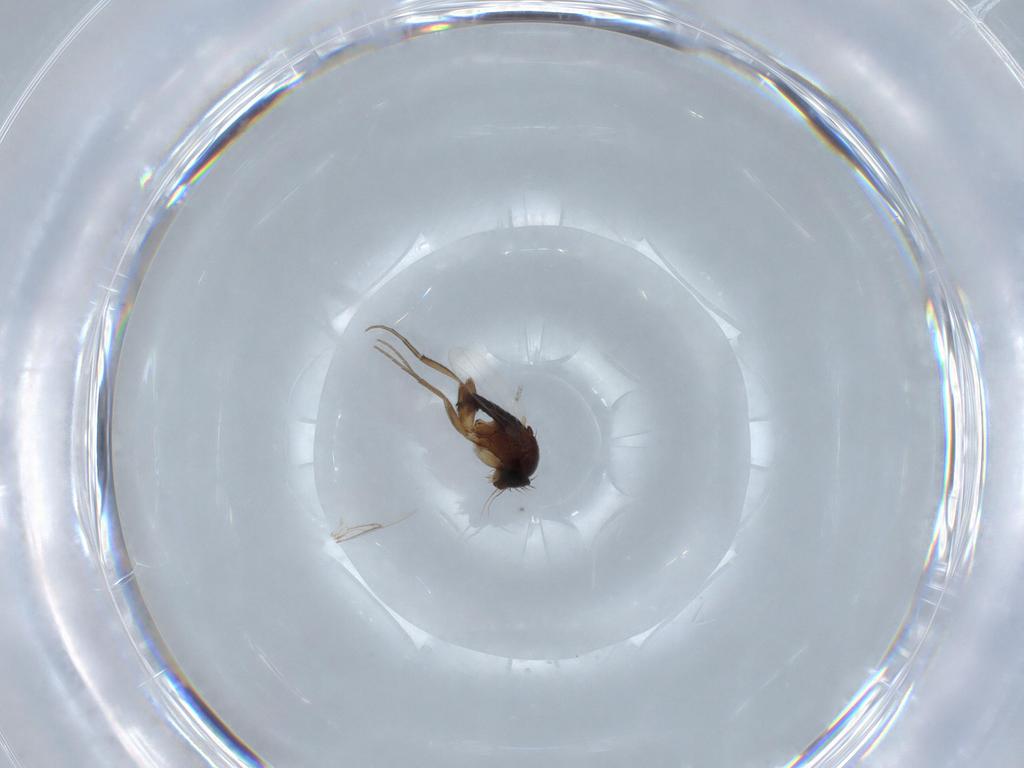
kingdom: Animalia
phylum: Arthropoda
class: Insecta
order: Diptera
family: Phoridae
